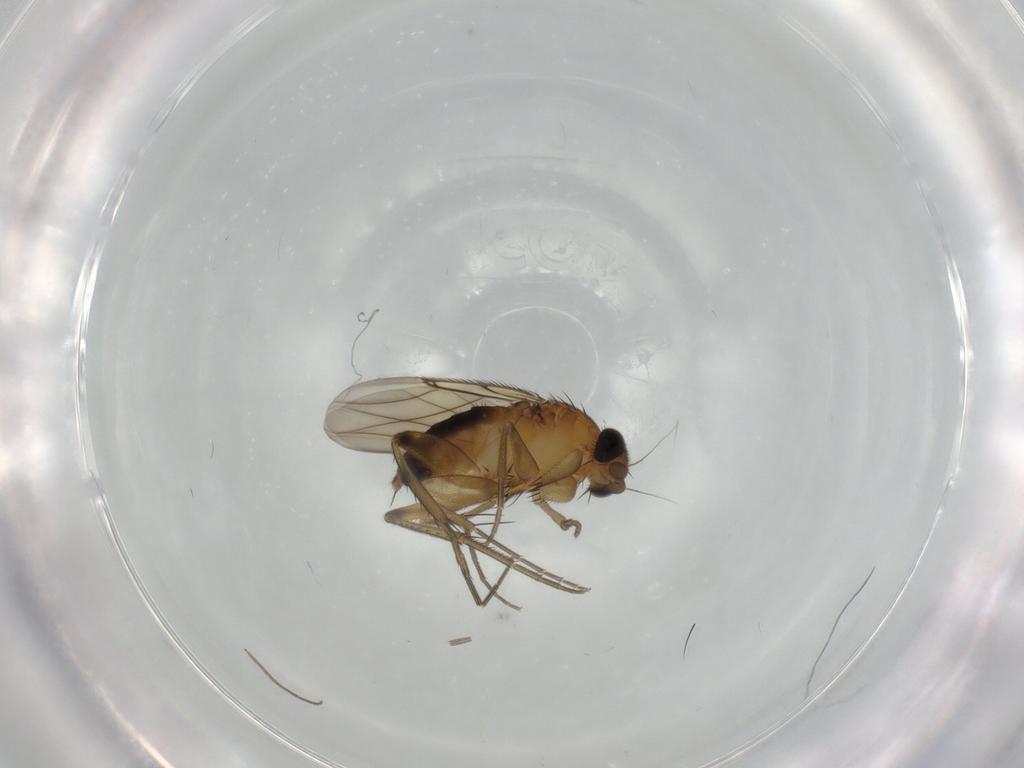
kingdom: Animalia
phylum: Arthropoda
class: Insecta
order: Diptera
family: Phoridae
